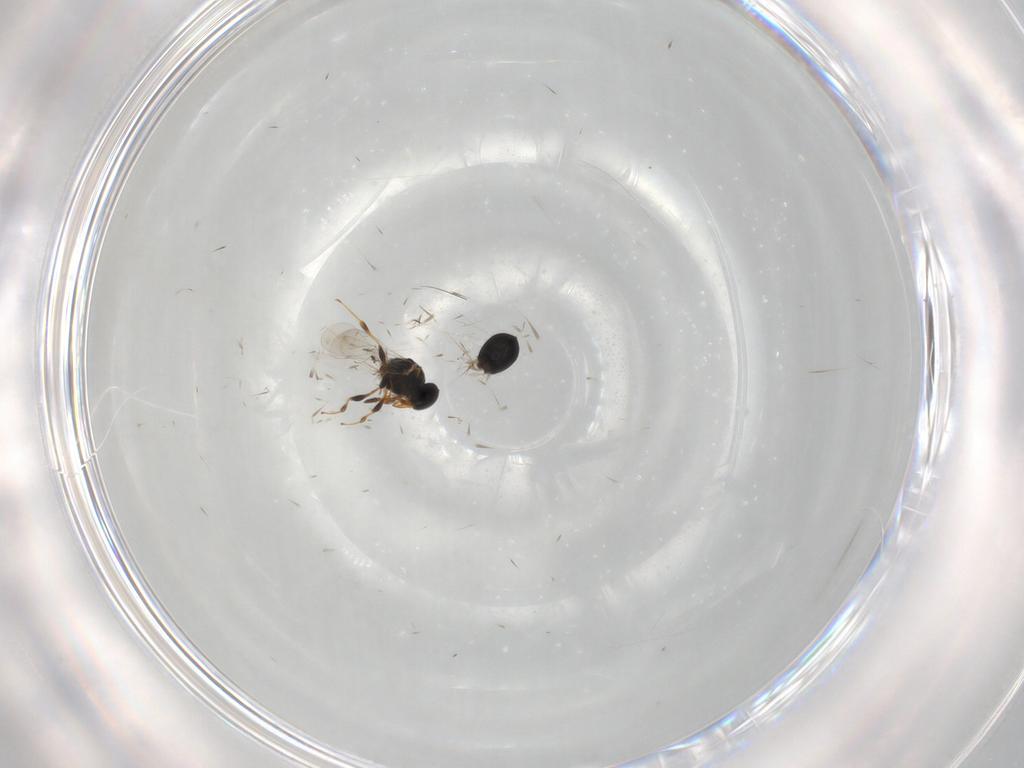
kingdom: Animalia
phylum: Arthropoda
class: Insecta
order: Hymenoptera
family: Platygastridae
